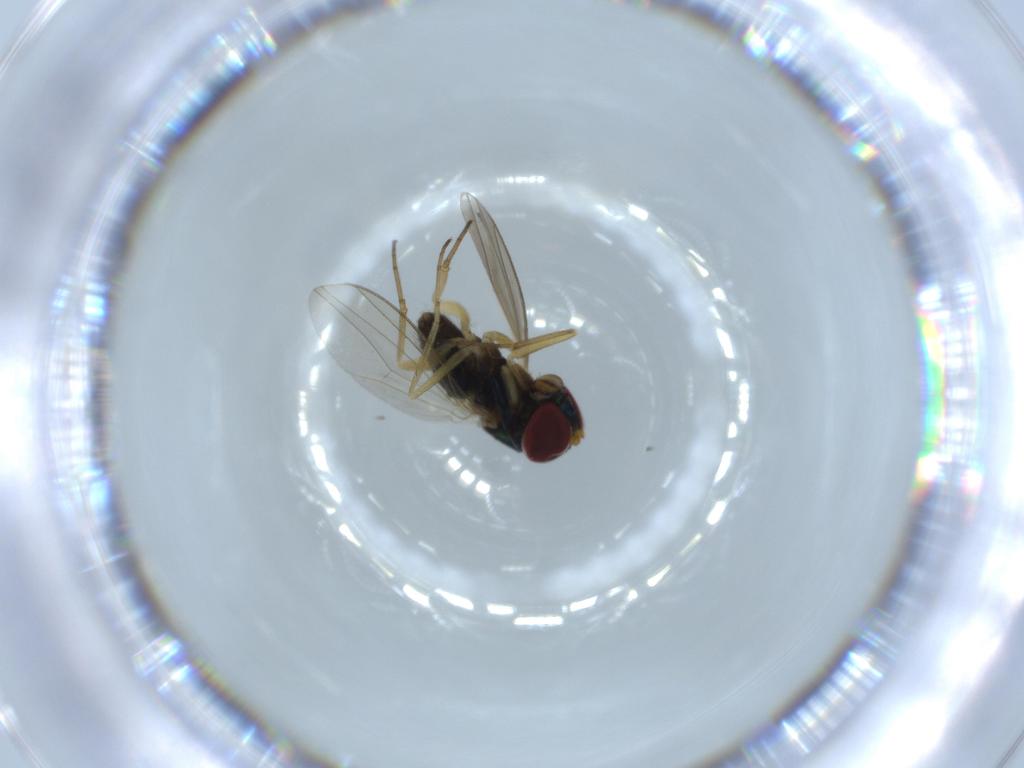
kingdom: Animalia
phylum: Arthropoda
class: Insecta
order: Diptera
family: Dolichopodidae
